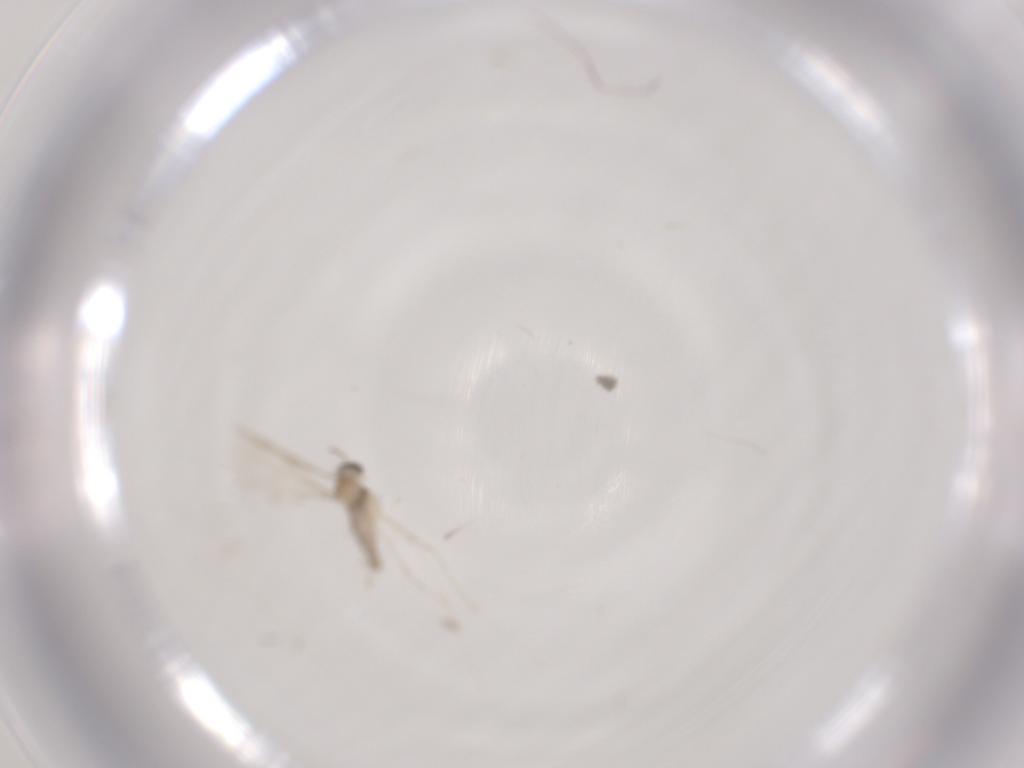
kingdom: Animalia
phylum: Arthropoda
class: Insecta
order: Diptera
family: Cecidomyiidae
